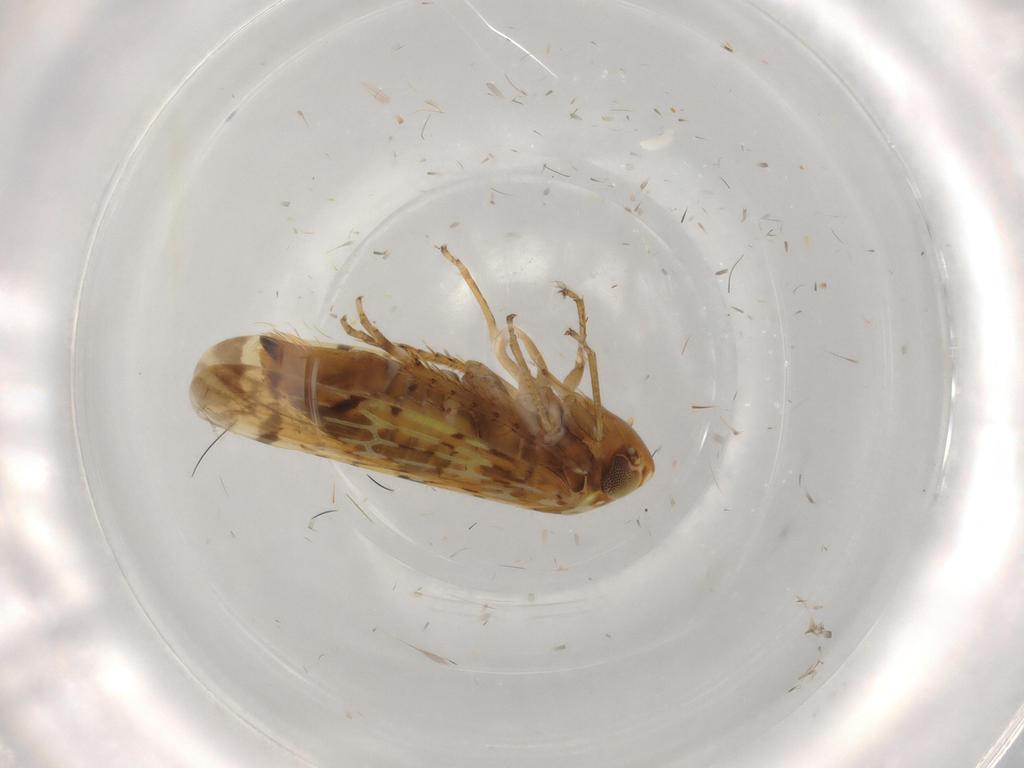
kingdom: Animalia
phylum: Arthropoda
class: Insecta
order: Hemiptera
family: Cicadellidae
